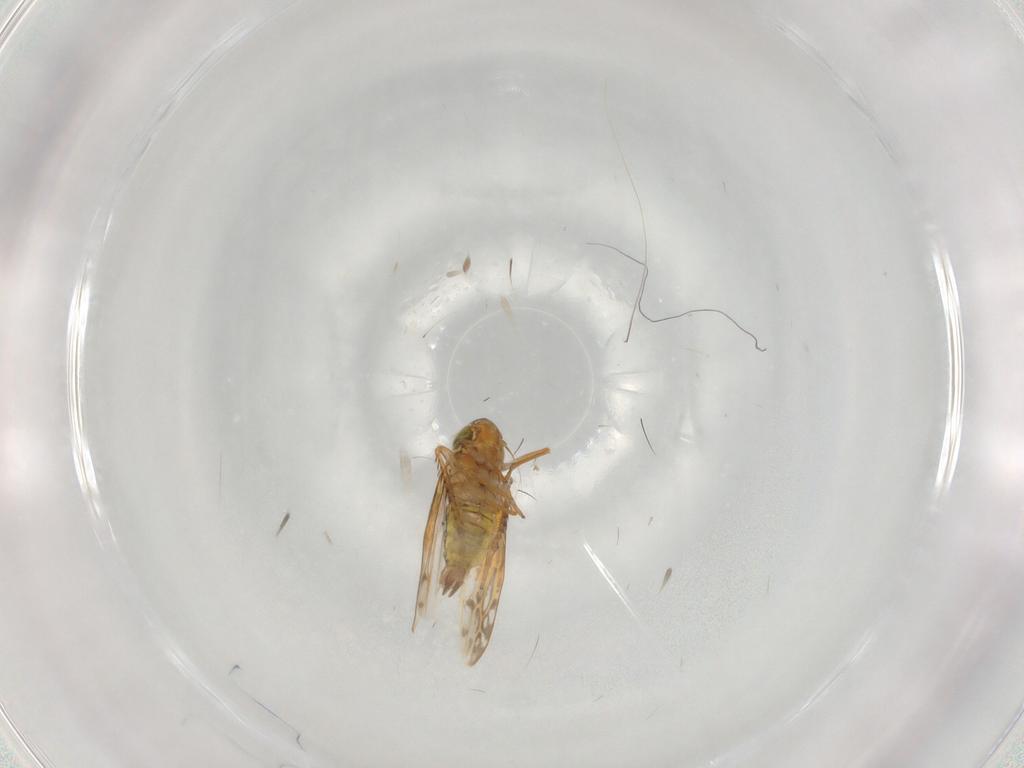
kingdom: Animalia
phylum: Arthropoda
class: Insecta
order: Hemiptera
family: Cicadellidae
